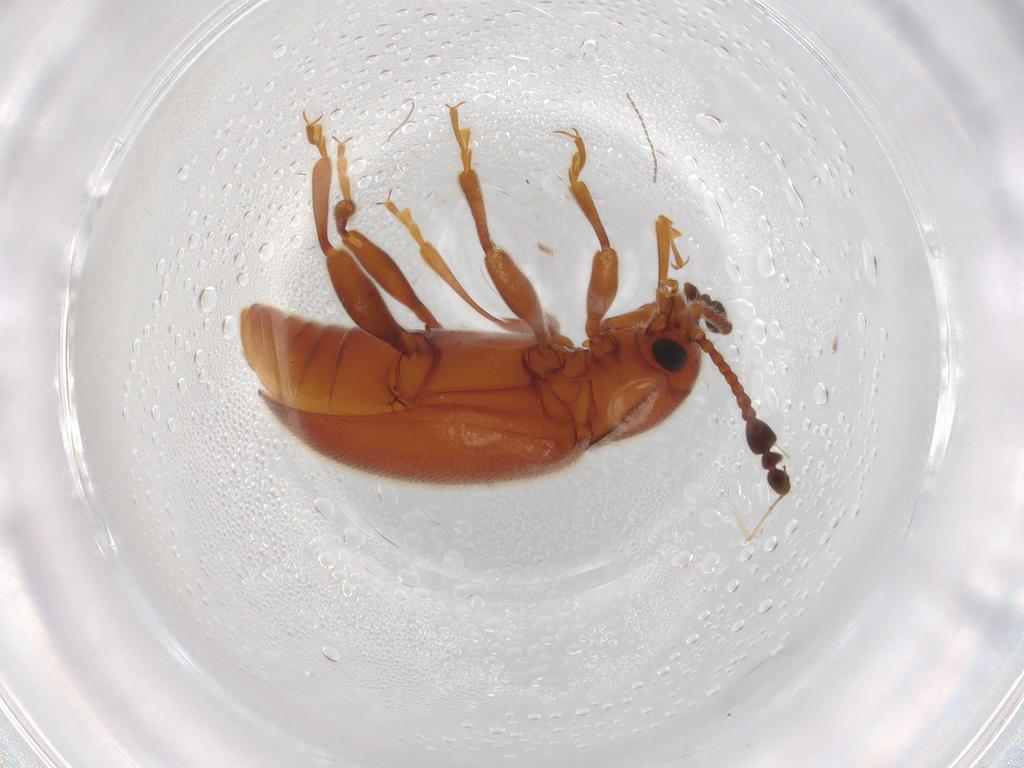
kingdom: Animalia
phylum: Arthropoda
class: Insecta
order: Coleoptera
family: Endomychidae
